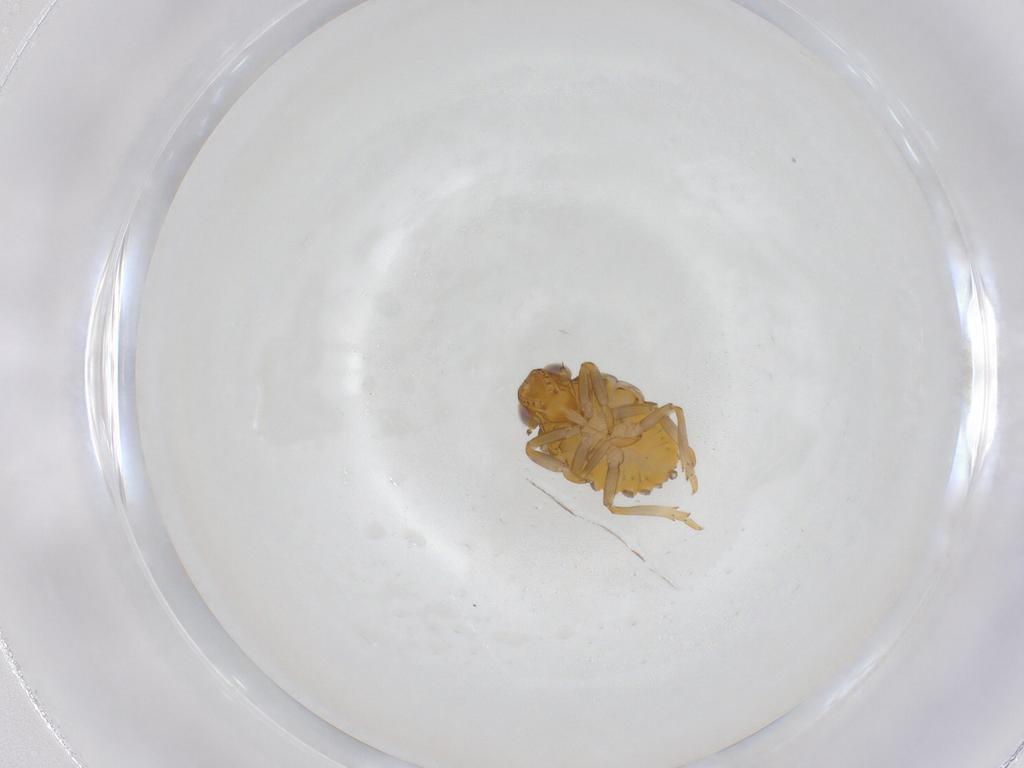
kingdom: Animalia
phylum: Arthropoda
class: Insecta
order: Hemiptera
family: Issidae
